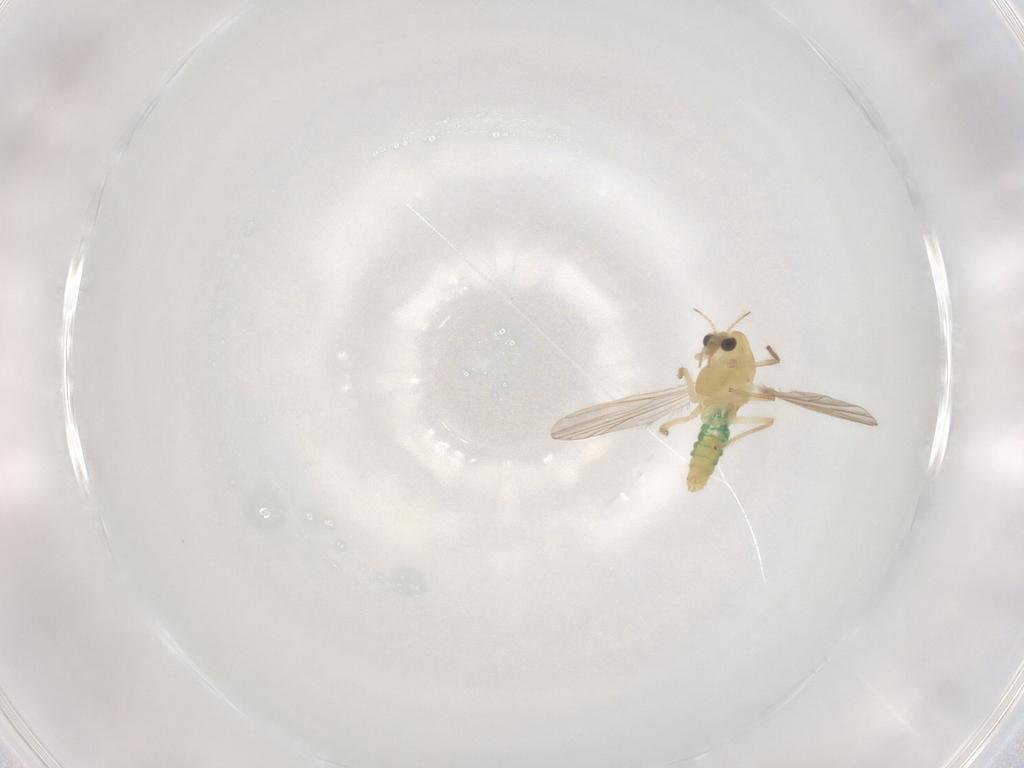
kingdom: Animalia
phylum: Arthropoda
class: Insecta
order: Diptera
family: Chironomidae
